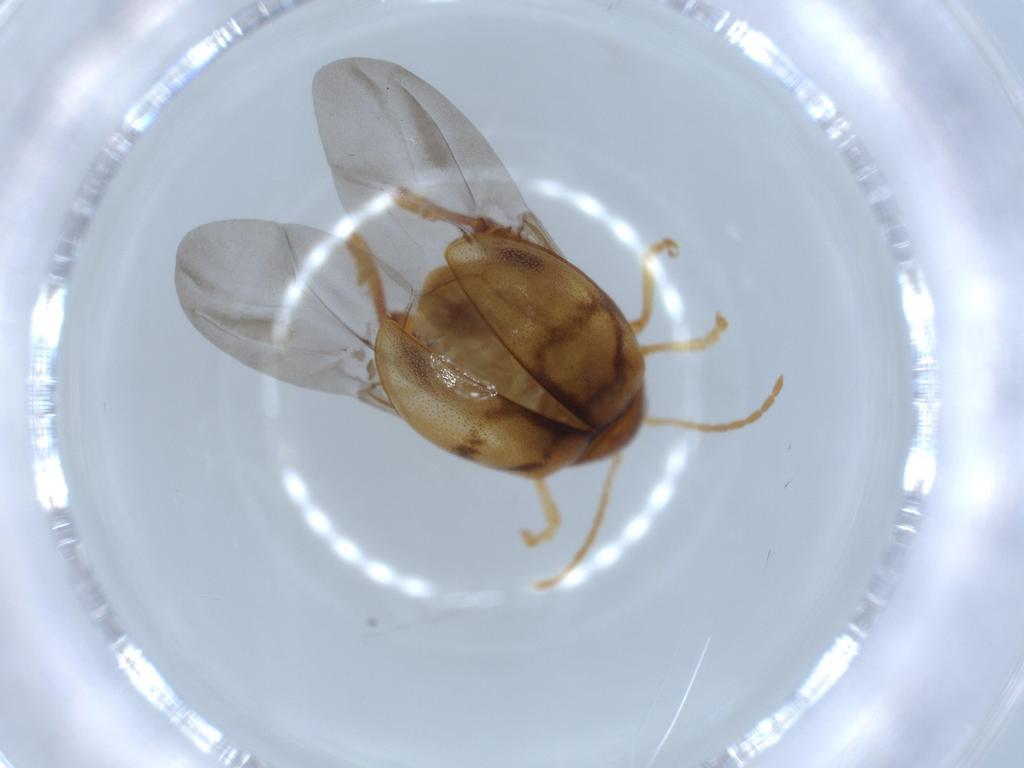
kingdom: Animalia
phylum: Arthropoda
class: Insecta
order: Coleoptera
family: Chrysomelidae
